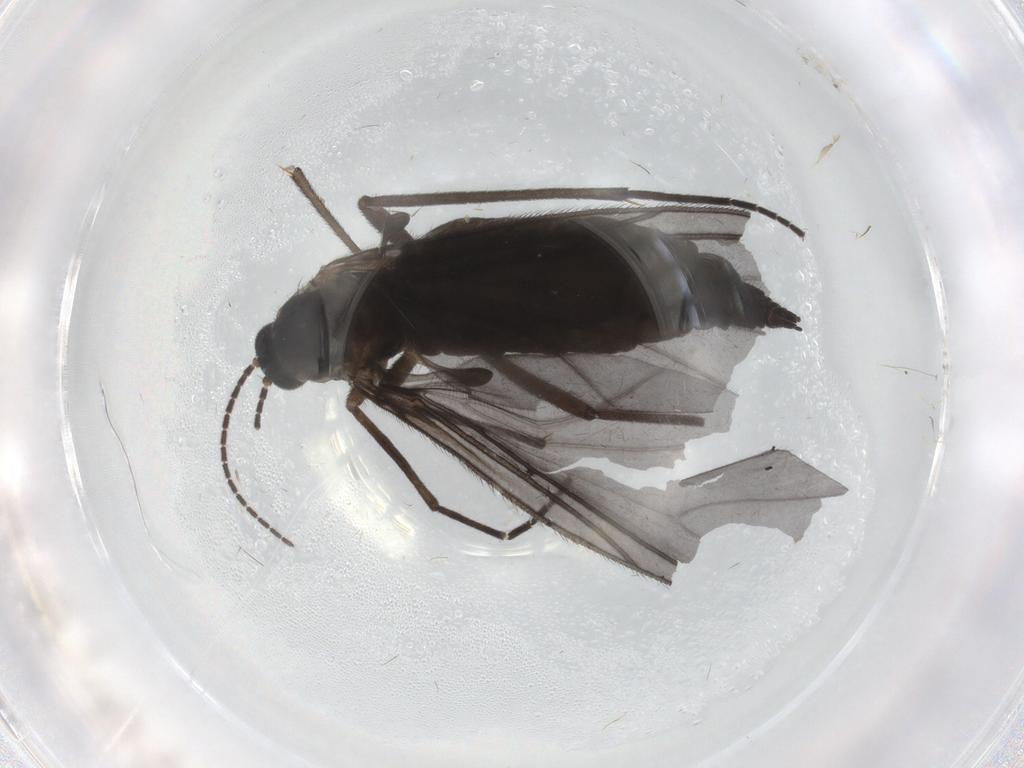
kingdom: Animalia
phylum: Arthropoda
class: Insecta
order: Diptera
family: Sciaridae
